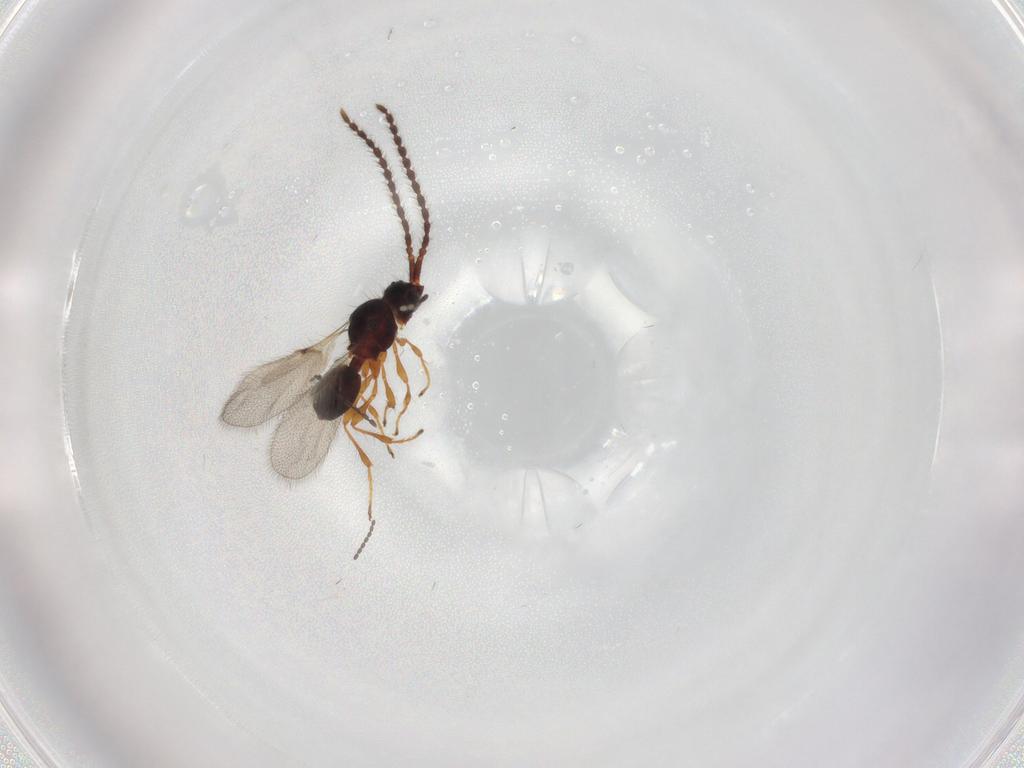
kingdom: Animalia
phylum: Arthropoda
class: Insecta
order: Hymenoptera
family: Diapriidae
